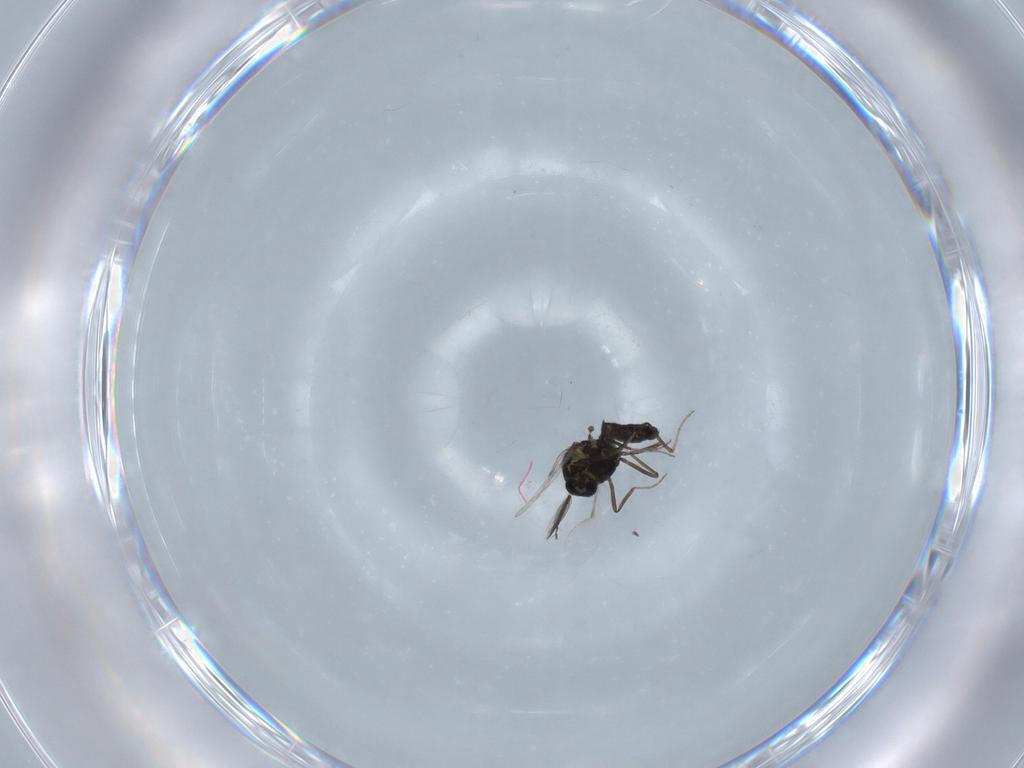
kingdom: Animalia
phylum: Arthropoda
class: Insecta
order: Diptera
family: Ceratopogonidae
